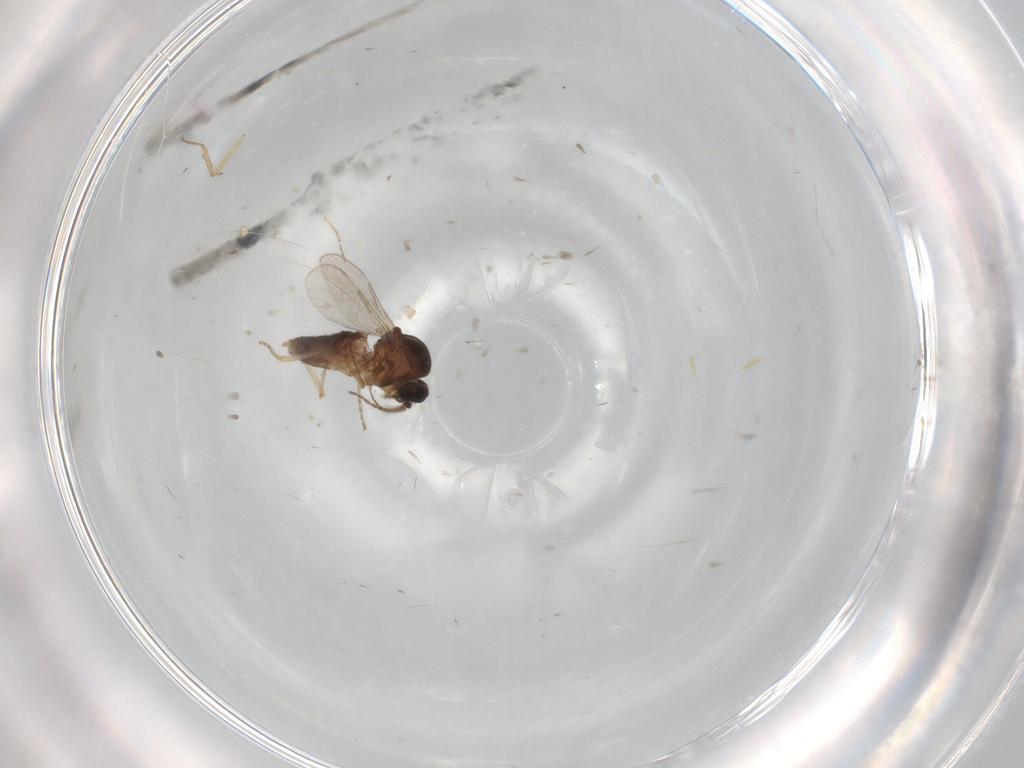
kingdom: Animalia
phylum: Arthropoda
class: Insecta
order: Diptera
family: Ceratopogonidae
